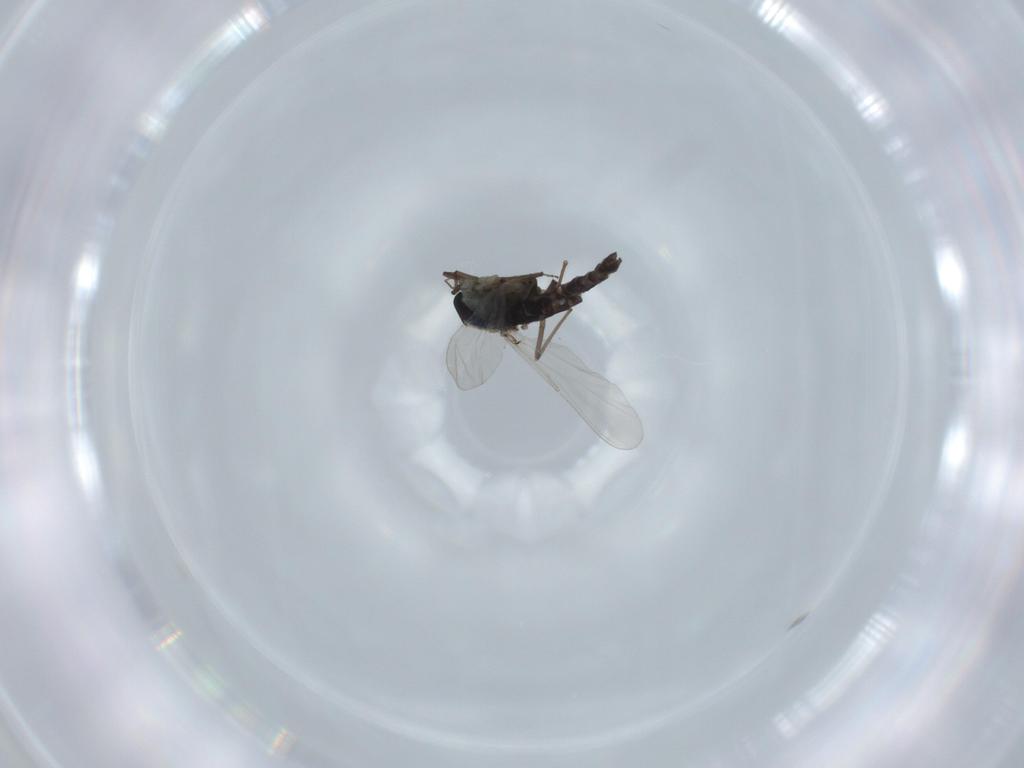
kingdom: Animalia
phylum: Arthropoda
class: Insecta
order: Diptera
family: Chironomidae
